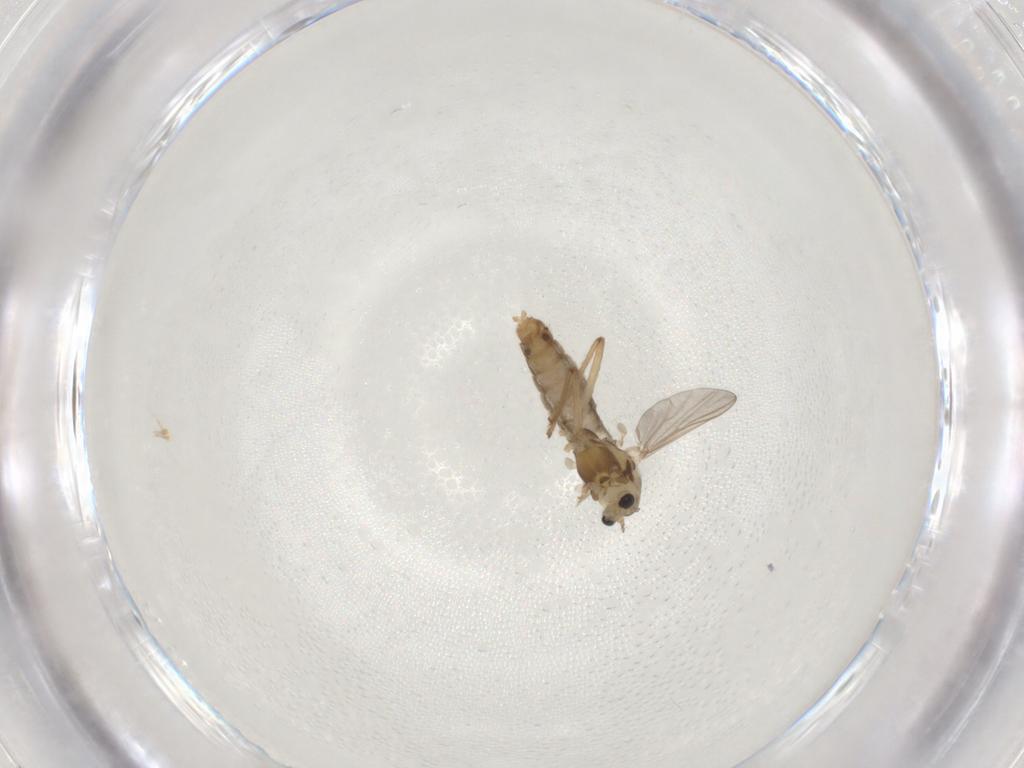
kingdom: Animalia
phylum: Arthropoda
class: Insecta
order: Diptera
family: Chironomidae
